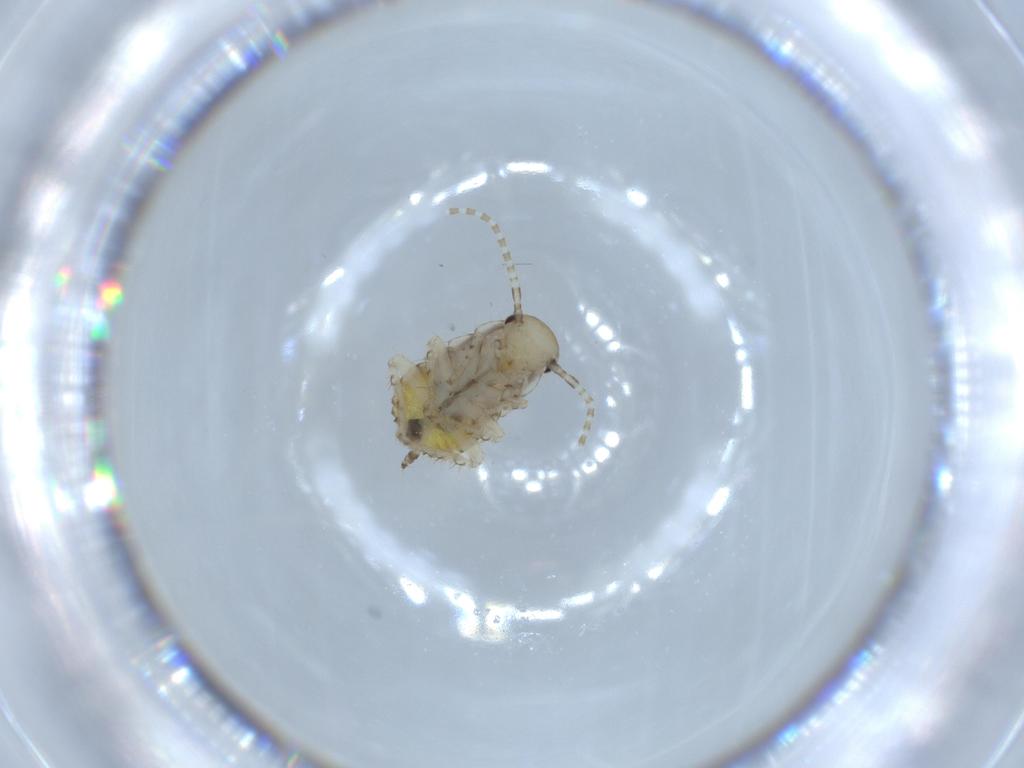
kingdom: Animalia
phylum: Arthropoda
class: Insecta
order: Blattodea
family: Ectobiidae
